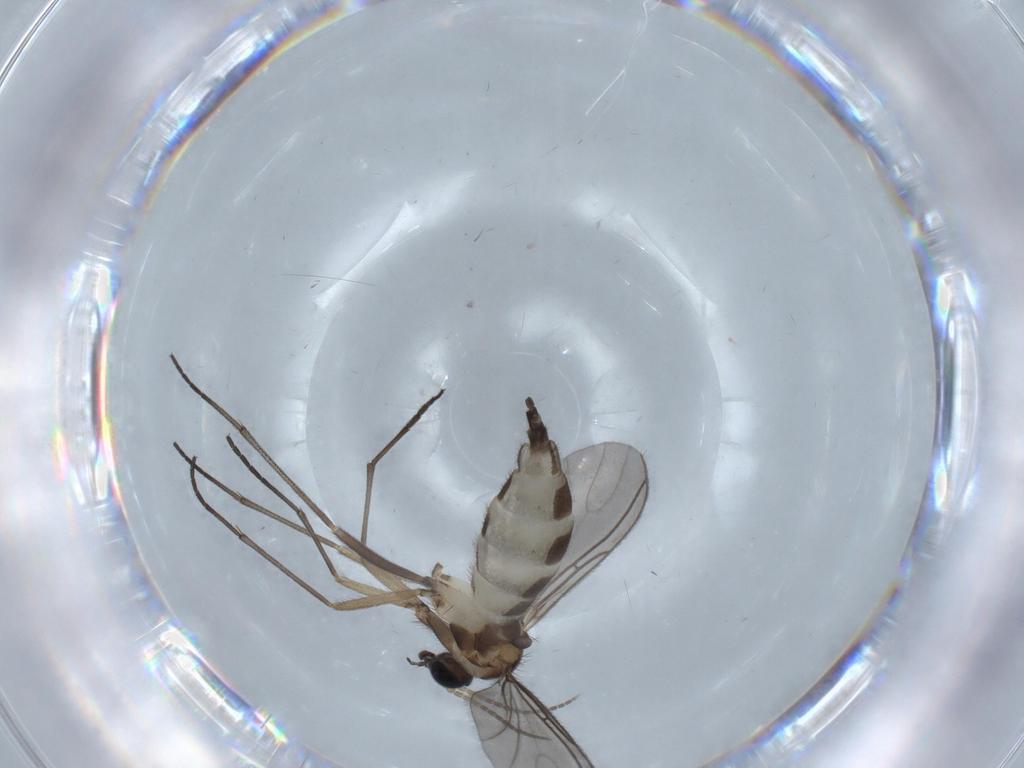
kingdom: Animalia
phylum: Arthropoda
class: Insecta
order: Diptera
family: Sciaridae
